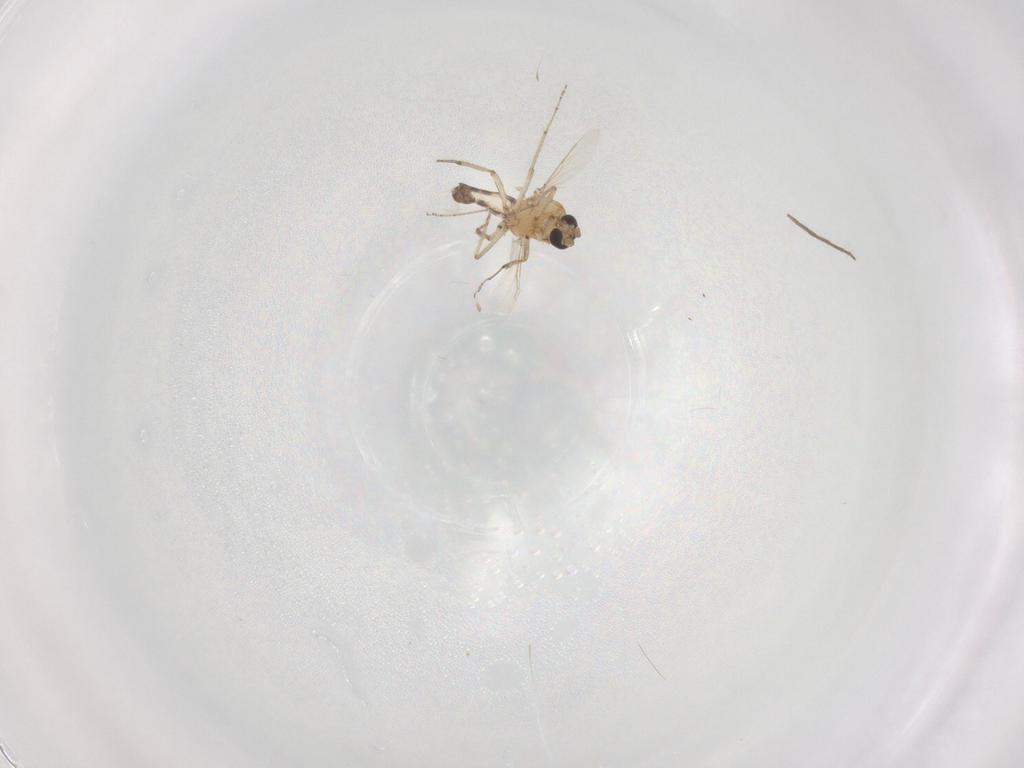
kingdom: Animalia
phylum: Arthropoda
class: Insecta
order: Diptera
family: Ceratopogonidae
